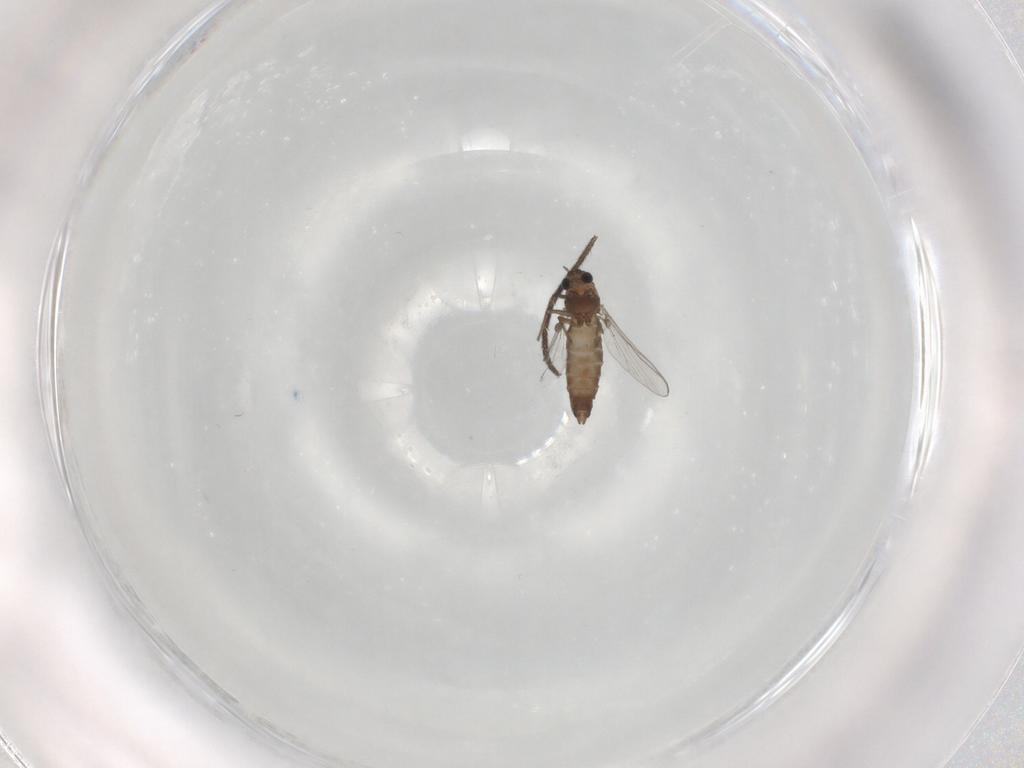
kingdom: Animalia
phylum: Arthropoda
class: Insecta
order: Diptera
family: Chironomidae
